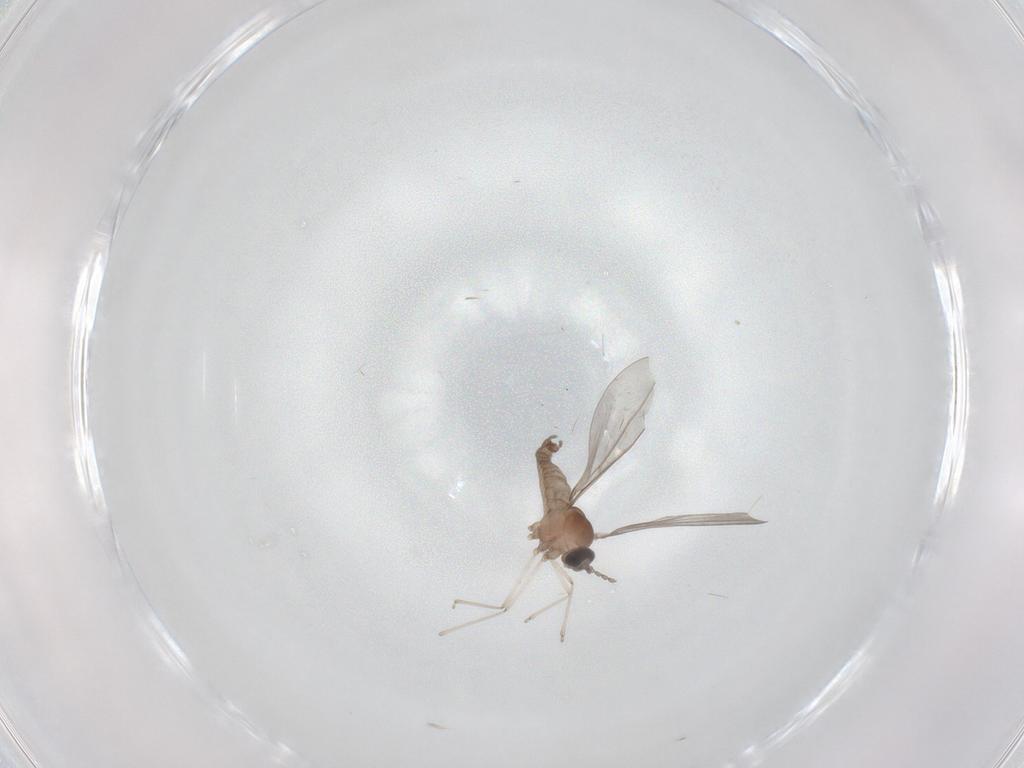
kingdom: Animalia
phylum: Arthropoda
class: Insecta
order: Diptera
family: Cecidomyiidae
